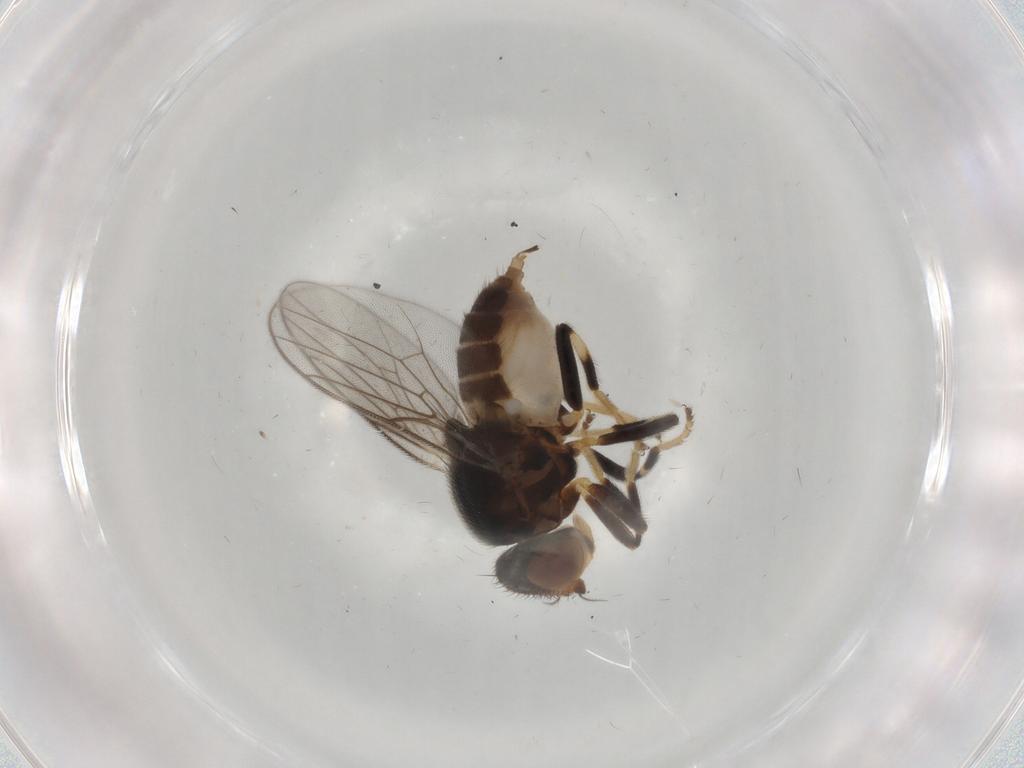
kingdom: Animalia
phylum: Arthropoda
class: Insecta
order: Diptera
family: Chloropidae
